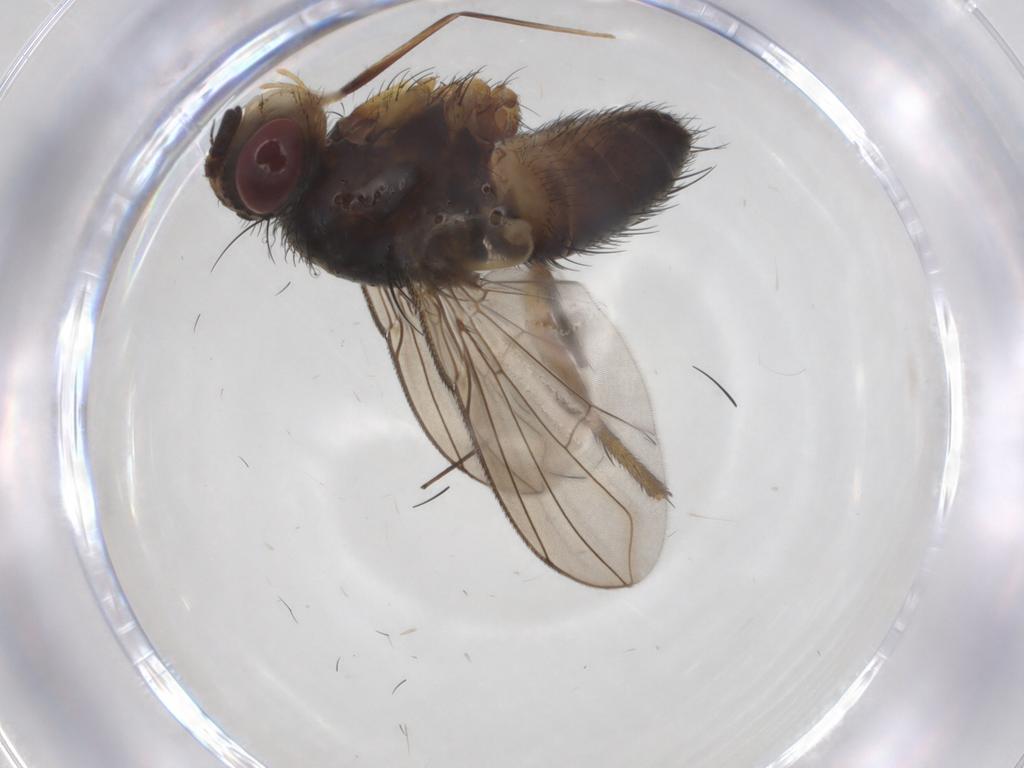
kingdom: Animalia
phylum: Arthropoda
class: Insecta
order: Diptera
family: Tachinidae
